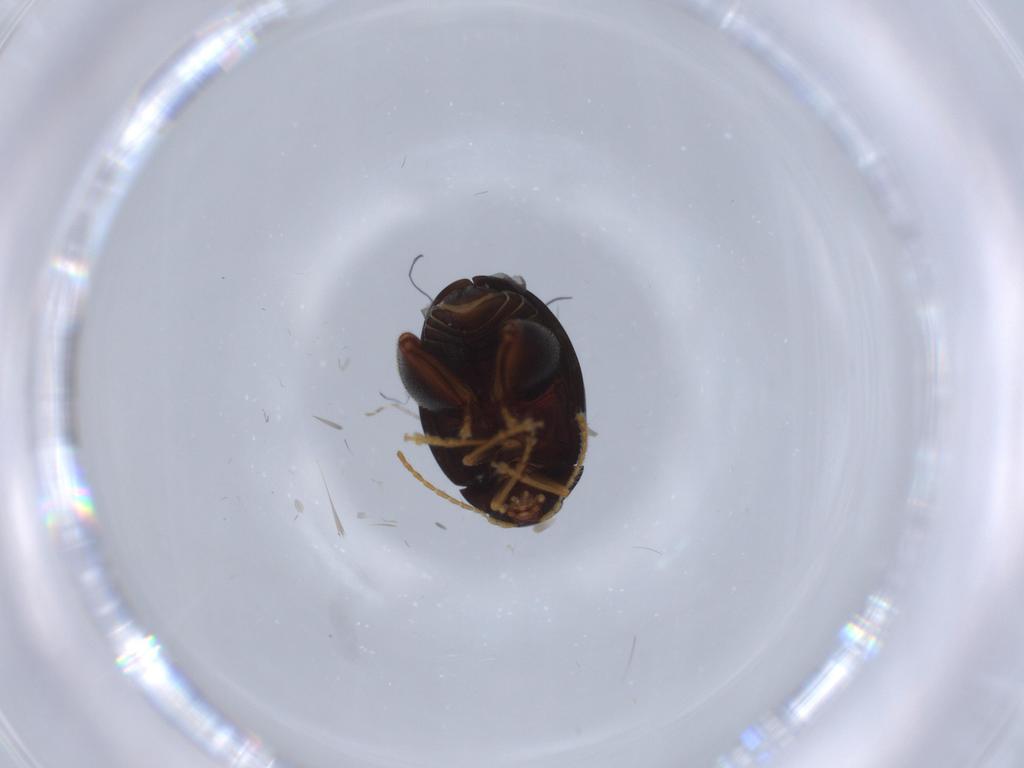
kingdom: Animalia
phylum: Arthropoda
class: Insecta
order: Coleoptera
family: Chrysomelidae
